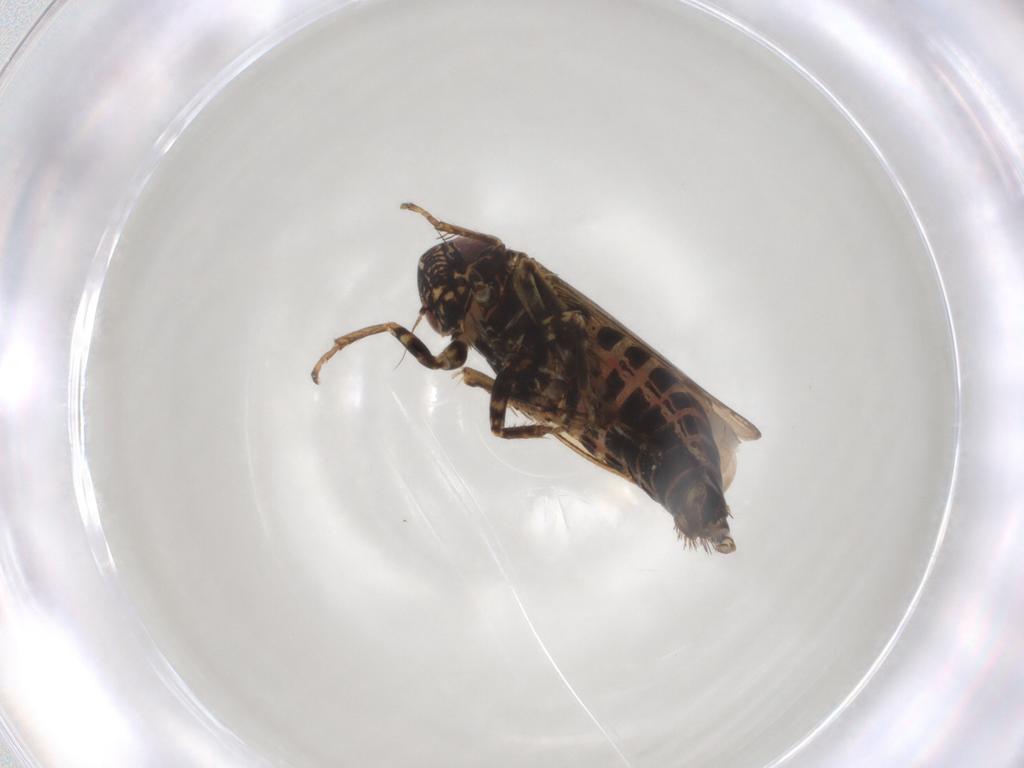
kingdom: Animalia
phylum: Arthropoda
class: Insecta
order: Hemiptera
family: Cicadellidae
